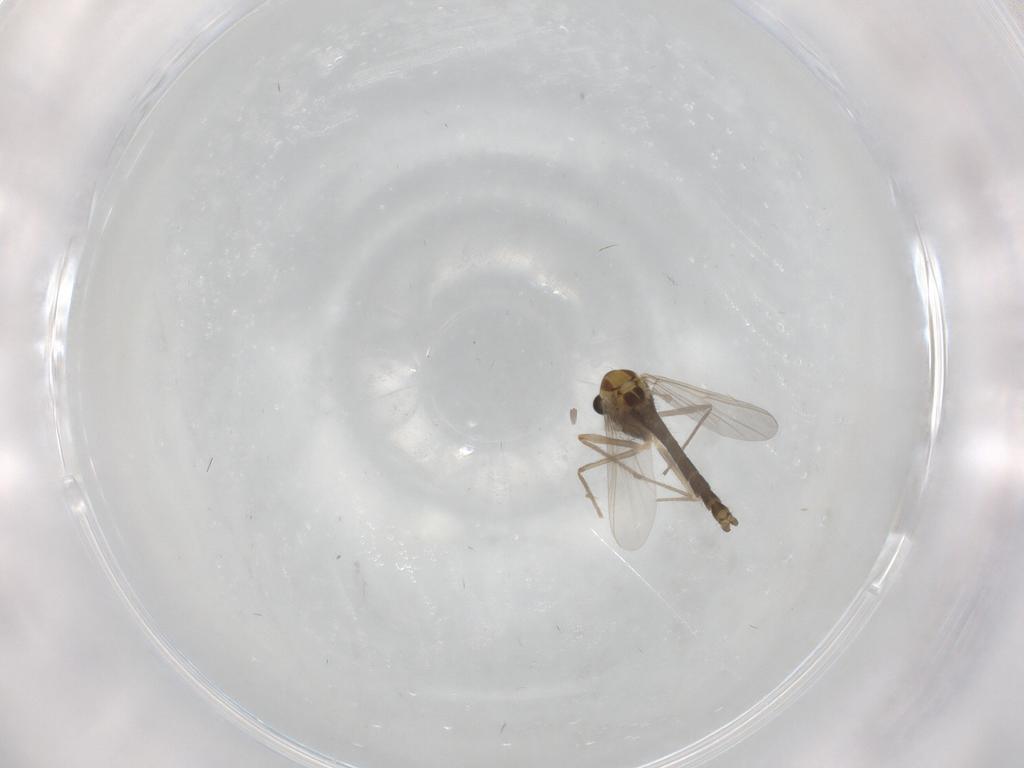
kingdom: Animalia
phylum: Arthropoda
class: Insecta
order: Diptera
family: Chironomidae
